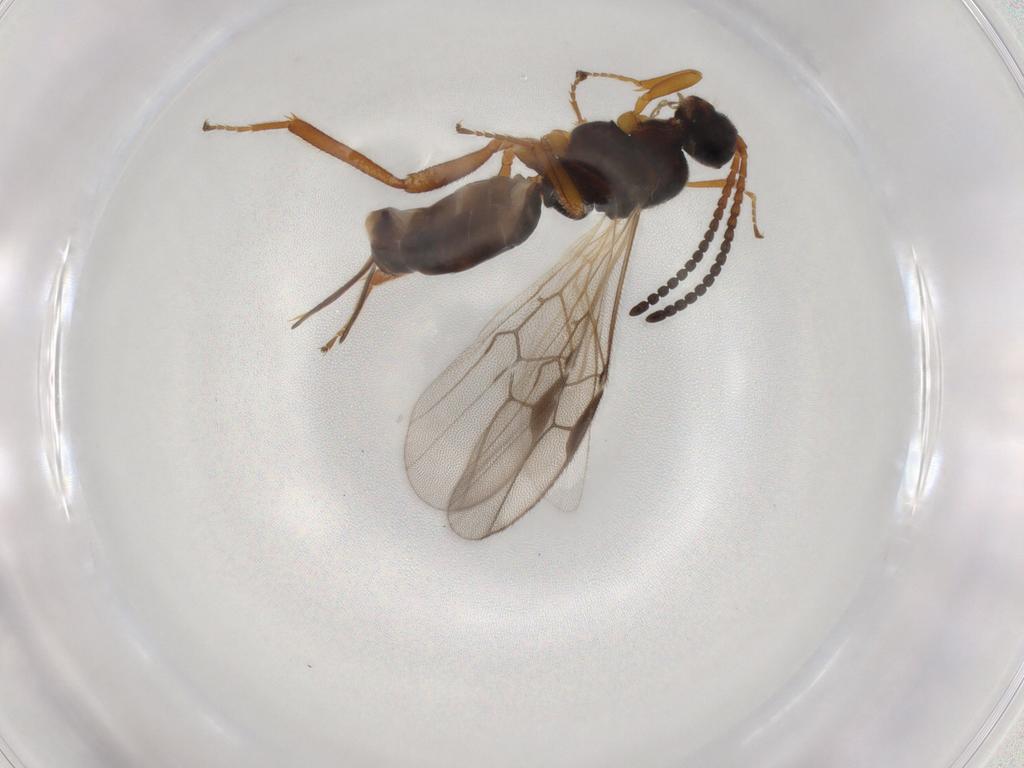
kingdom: Animalia
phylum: Arthropoda
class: Insecta
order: Hymenoptera
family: Braconidae
